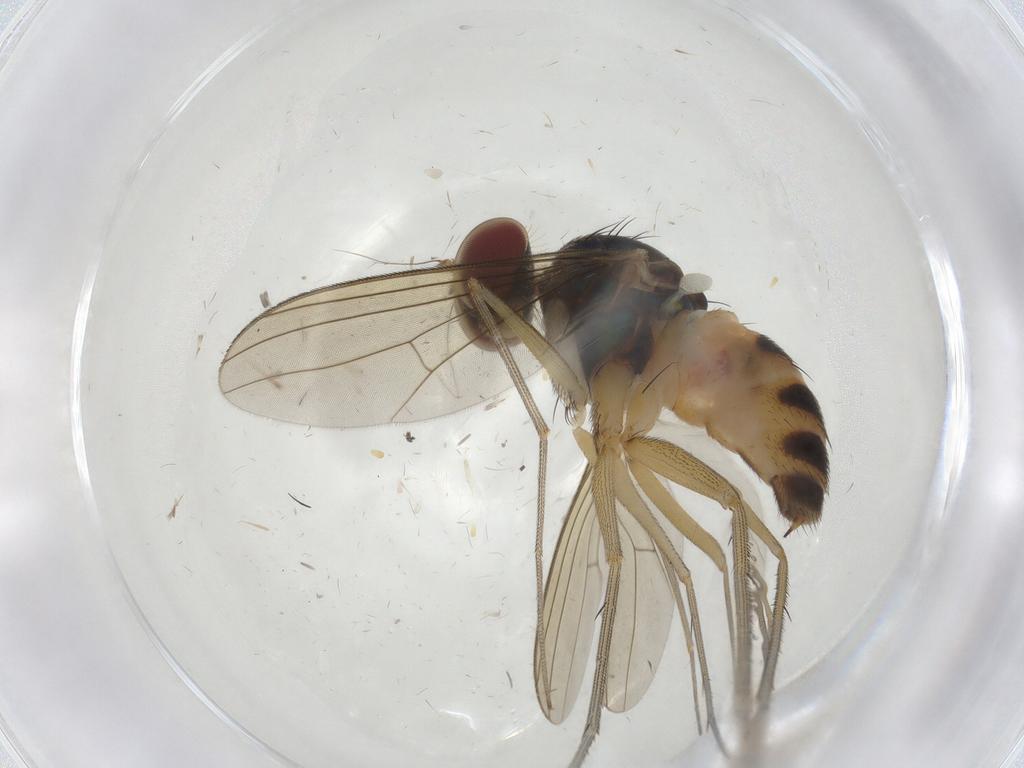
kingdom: Animalia
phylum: Arthropoda
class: Insecta
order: Diptera
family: Dolichopodidae
